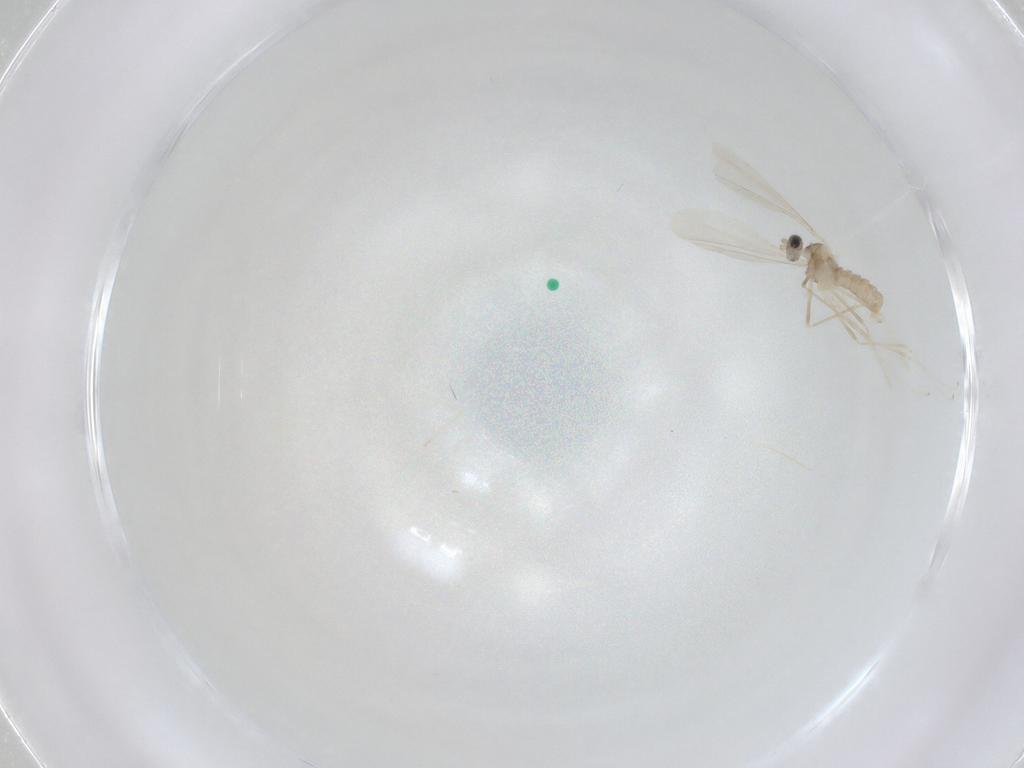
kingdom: Animalia
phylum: Arthropoda
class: Insecta
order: Diptera
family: Cecidomyiidae
